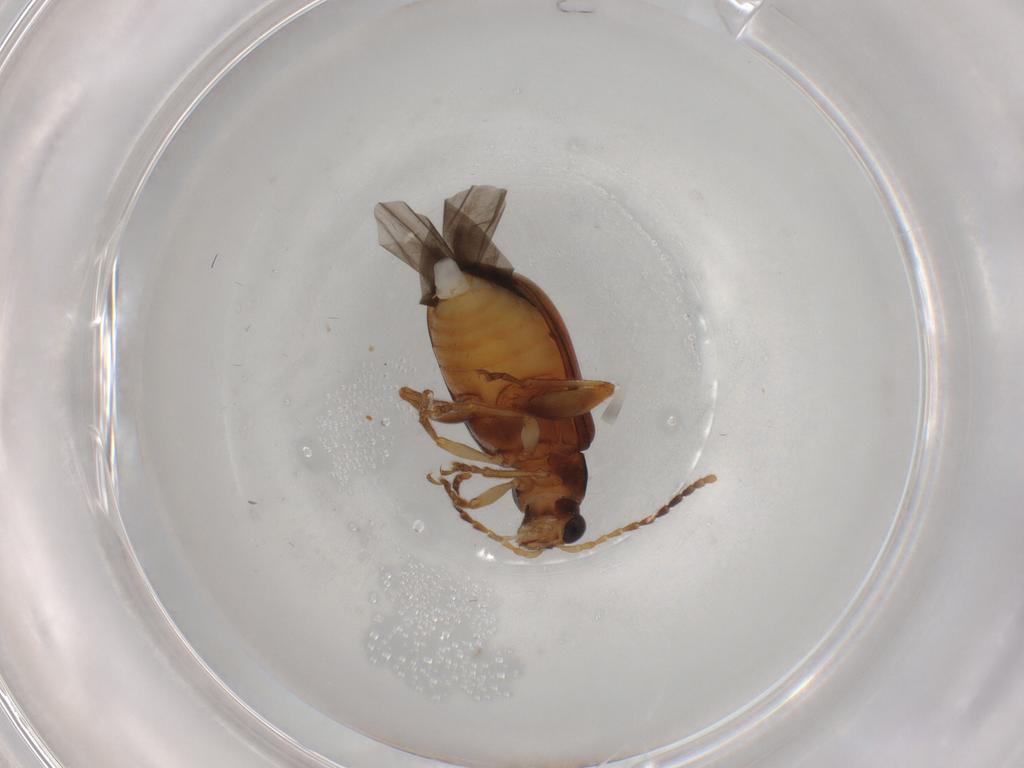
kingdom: Animalia
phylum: Arthropoda
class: Insecta
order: Coleoptera
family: Chrysomelidae
